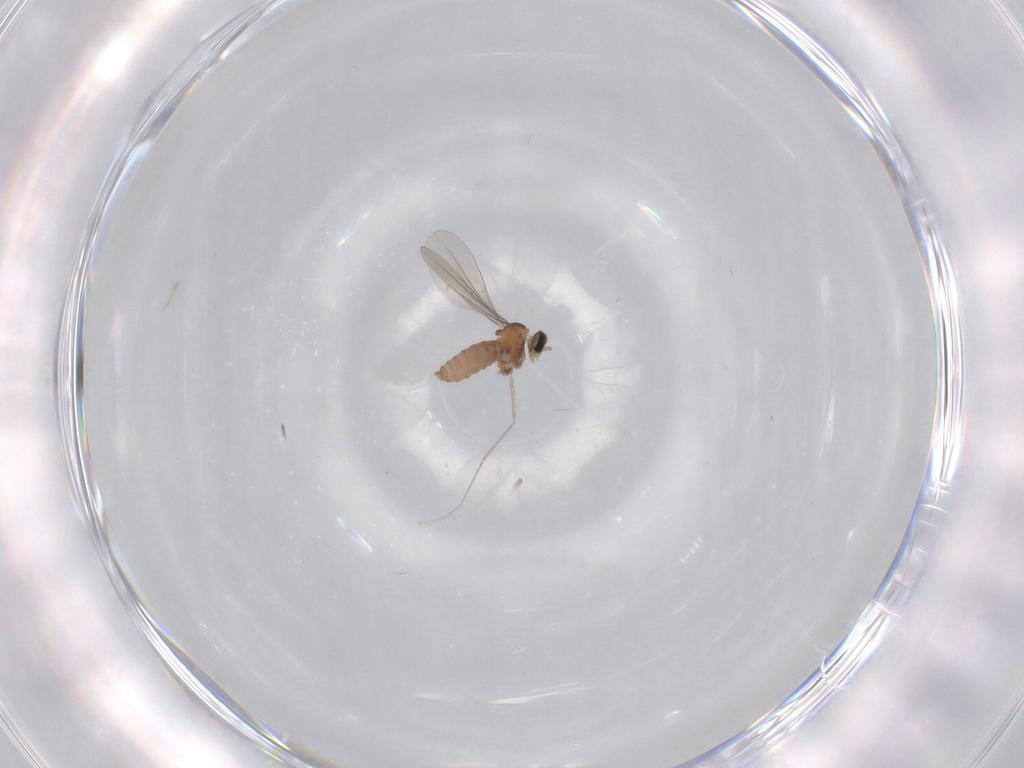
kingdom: Animalia
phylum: Arthropoda
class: Insecta
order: Diptera
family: Cecidomyiidae
